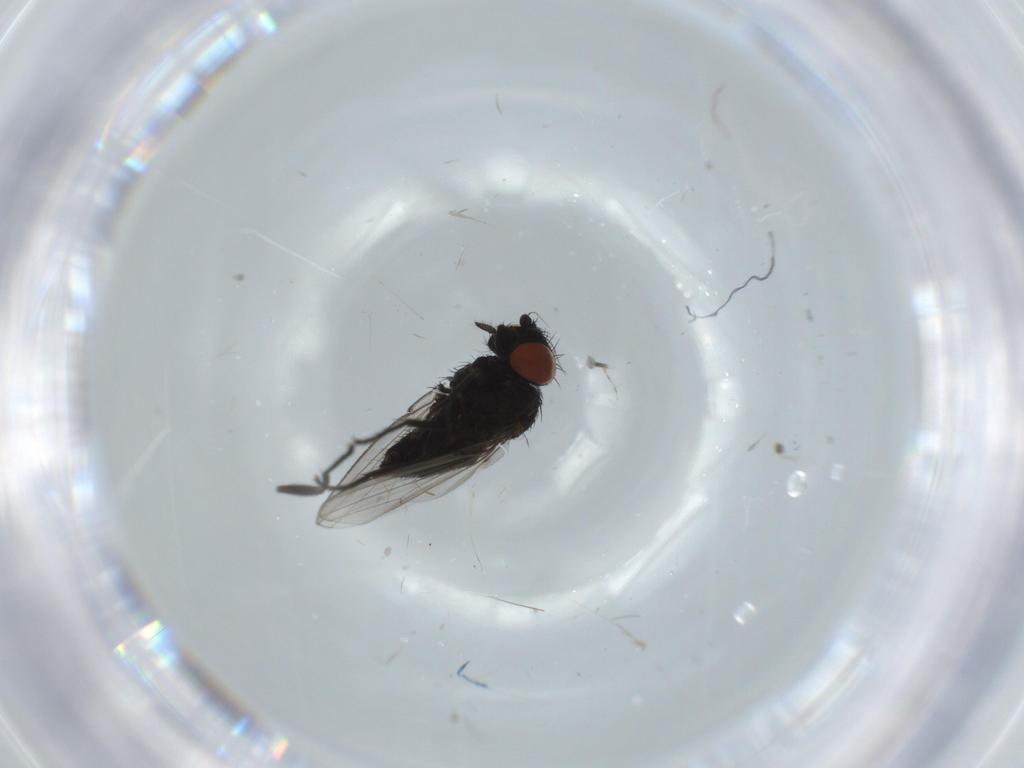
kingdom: Animalia
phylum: Arthropoda
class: Insecta
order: Diptera
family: Milichiidae
